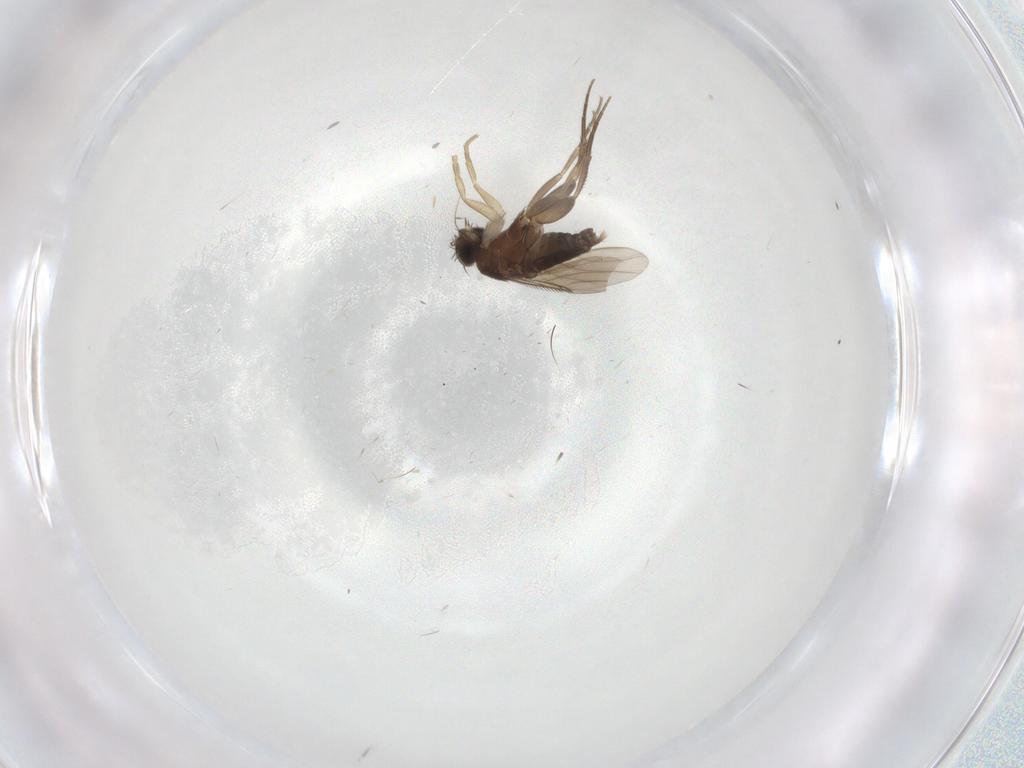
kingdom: Animalia
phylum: Arthropoda
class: Insecta
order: Diptera
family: Phoridae
